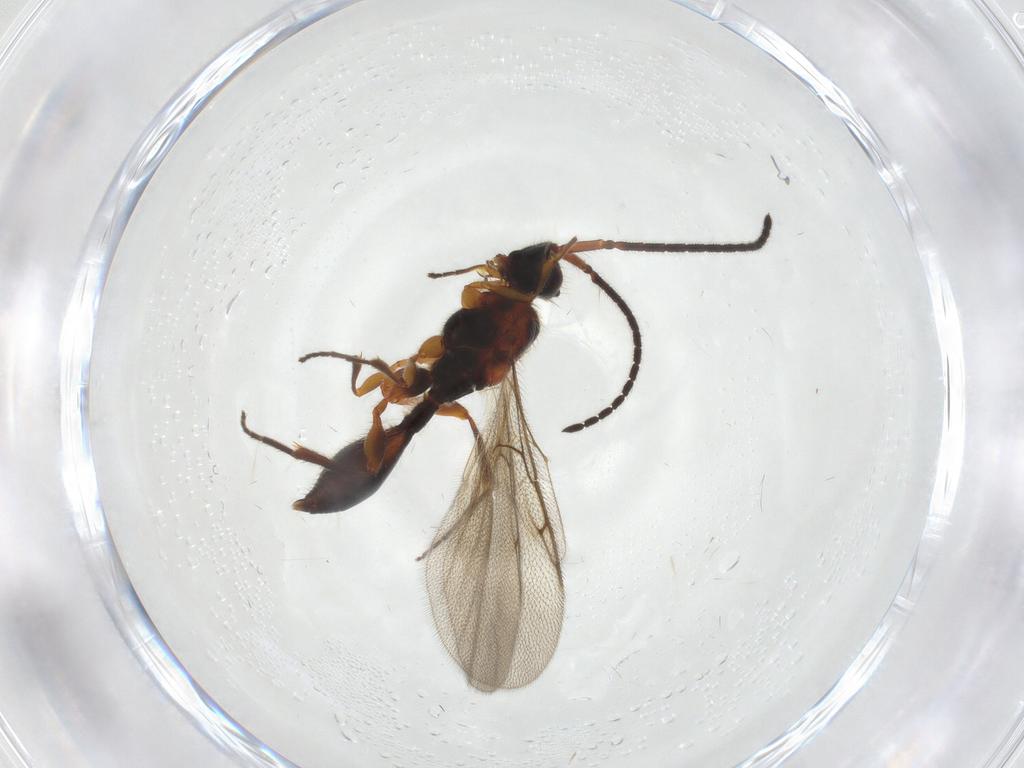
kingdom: Animalia
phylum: Arthropoda
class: Insecta
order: Hymenoptera
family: Diapriidae
